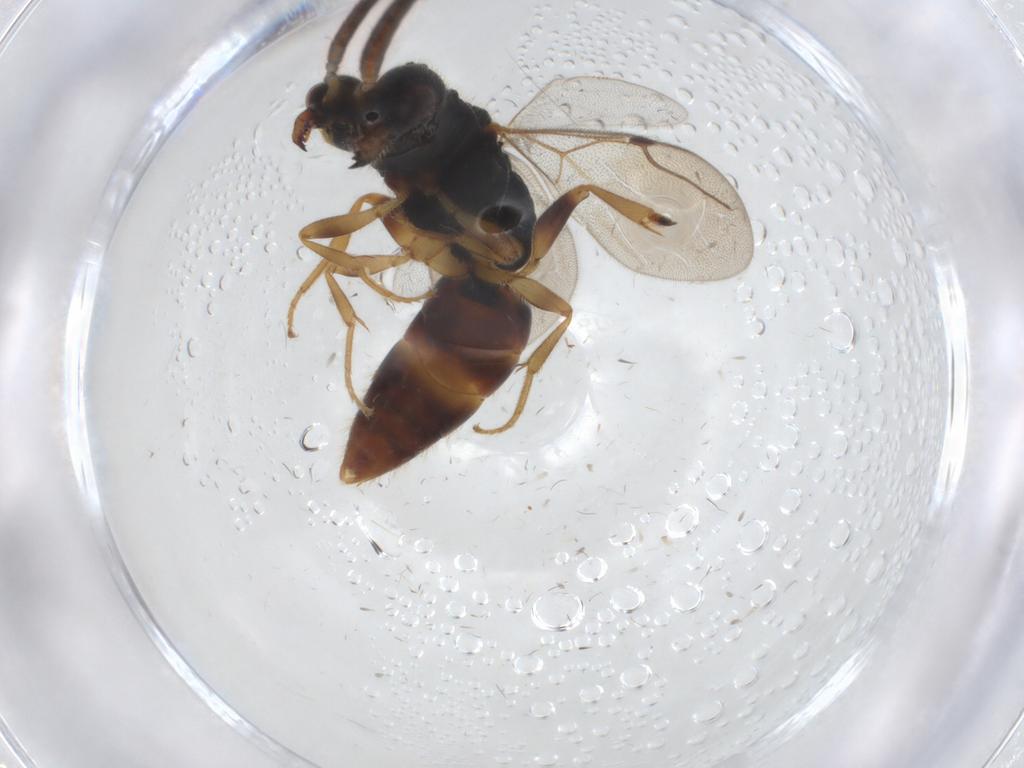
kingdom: Animalia
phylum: Arthropoda
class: Insecta
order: Hymenoptera
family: Bethylidae
